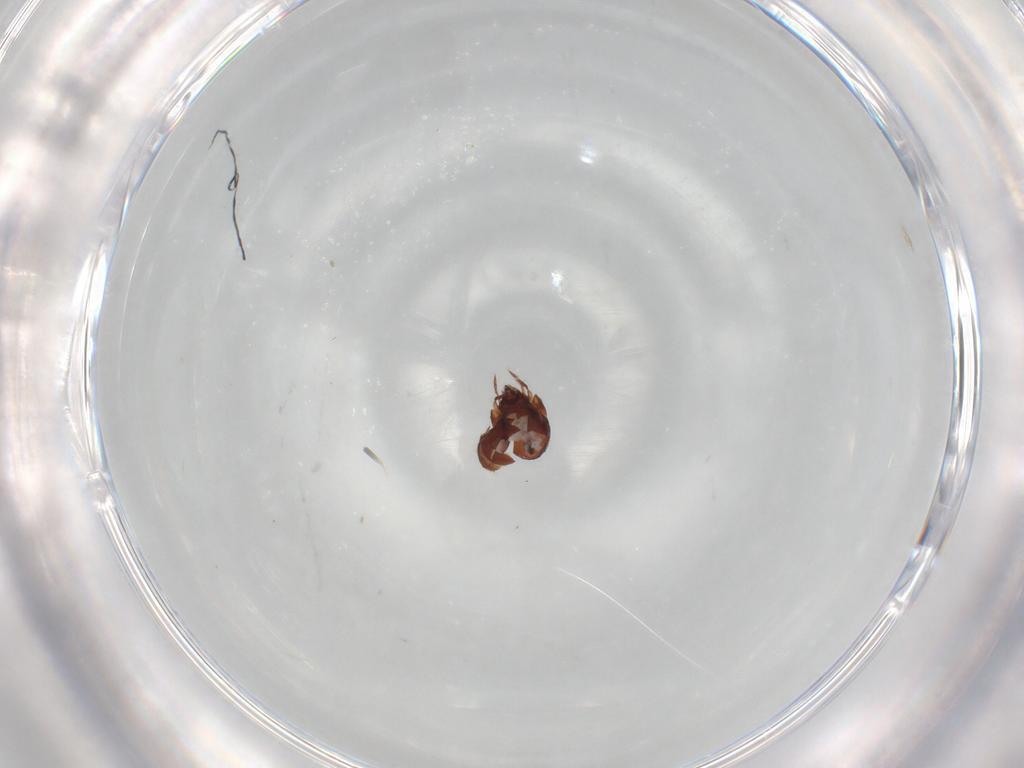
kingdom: Animalia
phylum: Arthropoda
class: Arachnida
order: Sarcoptiformes
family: Humerobatidae
